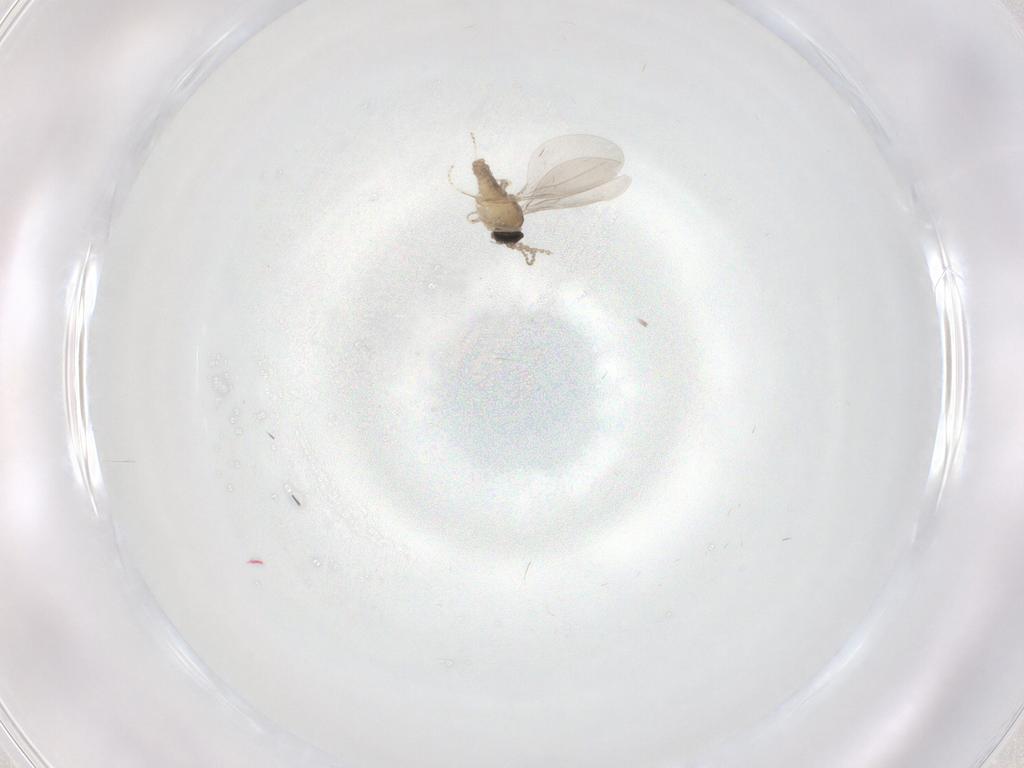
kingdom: Animalia
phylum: Arthropoda
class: Insecta
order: Diptera
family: Cecidomyiidae
